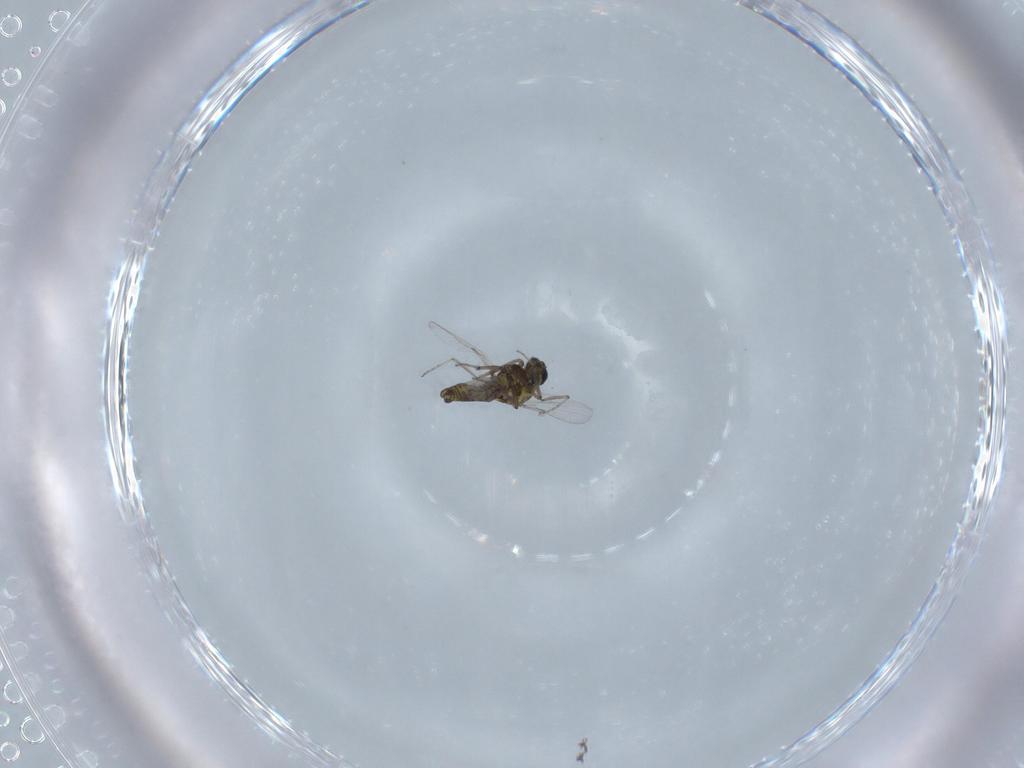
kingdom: Animalia
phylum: Arthropoda
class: Insecta
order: Diptera
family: Ceratopogonidae
